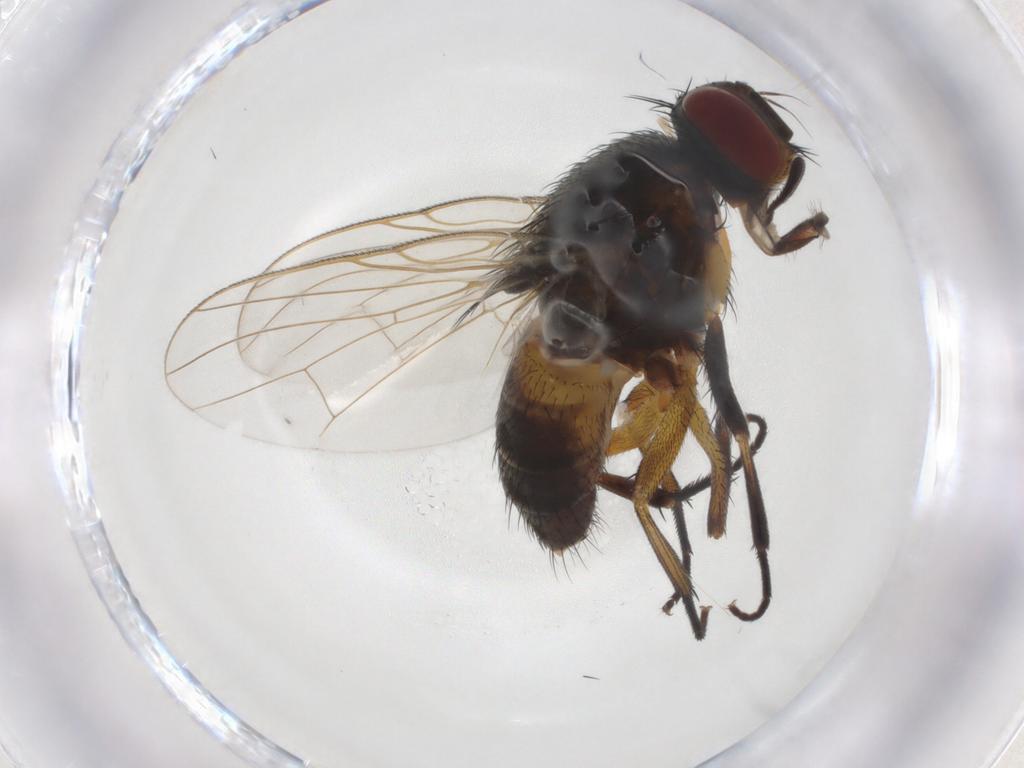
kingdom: Animalia
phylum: Arthropoda
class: Insecta
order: Diptera
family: Muscidae
